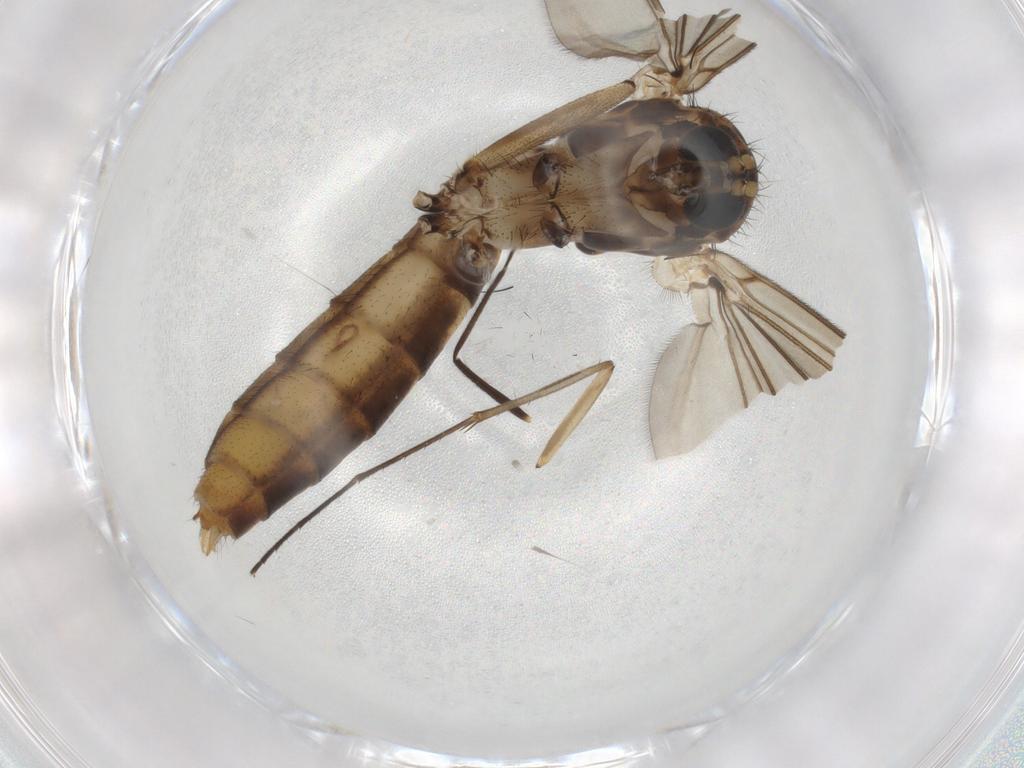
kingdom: Animalia
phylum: Arthropoda
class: Insecta
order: Diptera
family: Mycetophilidae
